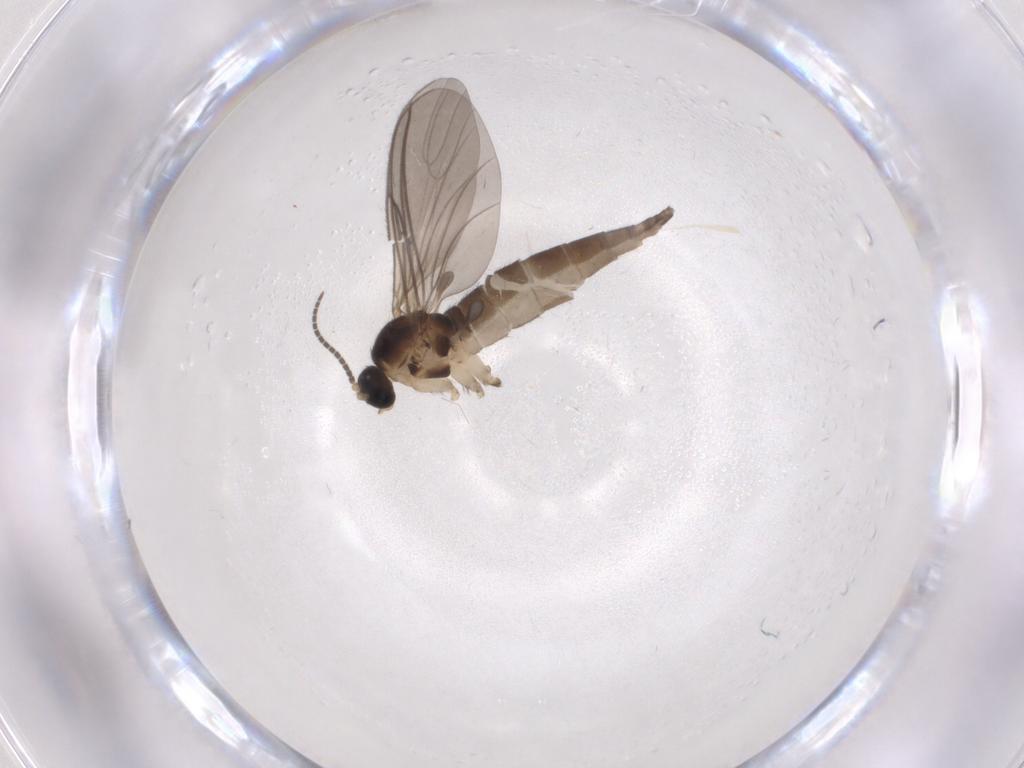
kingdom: Animalia
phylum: Arthropoda
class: Insecta
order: Diptera
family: Sciaridae
